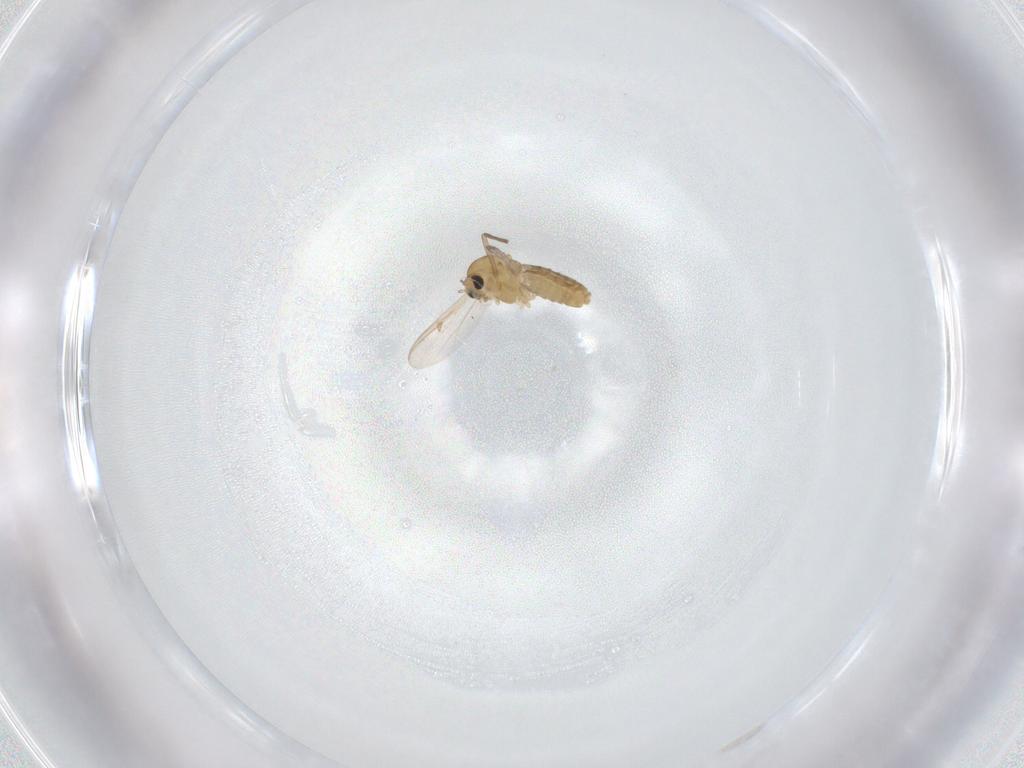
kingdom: Animalia
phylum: Arthropoda
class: Insecta
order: Diptera
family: Chironomidae
